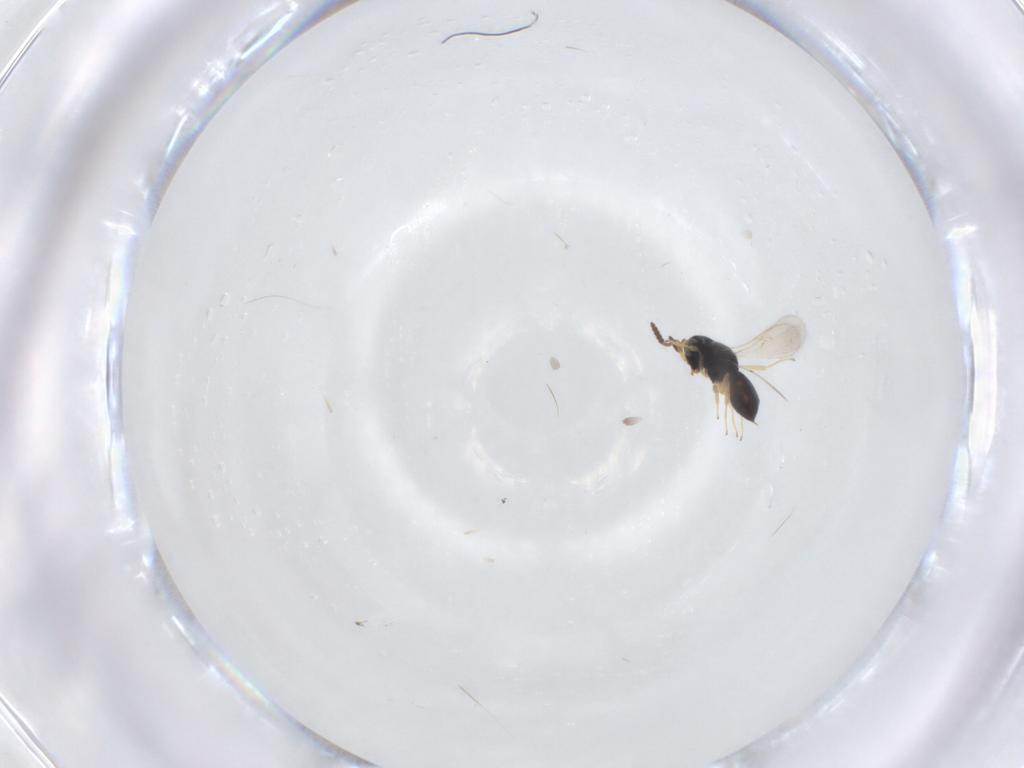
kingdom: Animalia
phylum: Arthropoda
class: Insecta
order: Hymenoptera
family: Scelionidae
